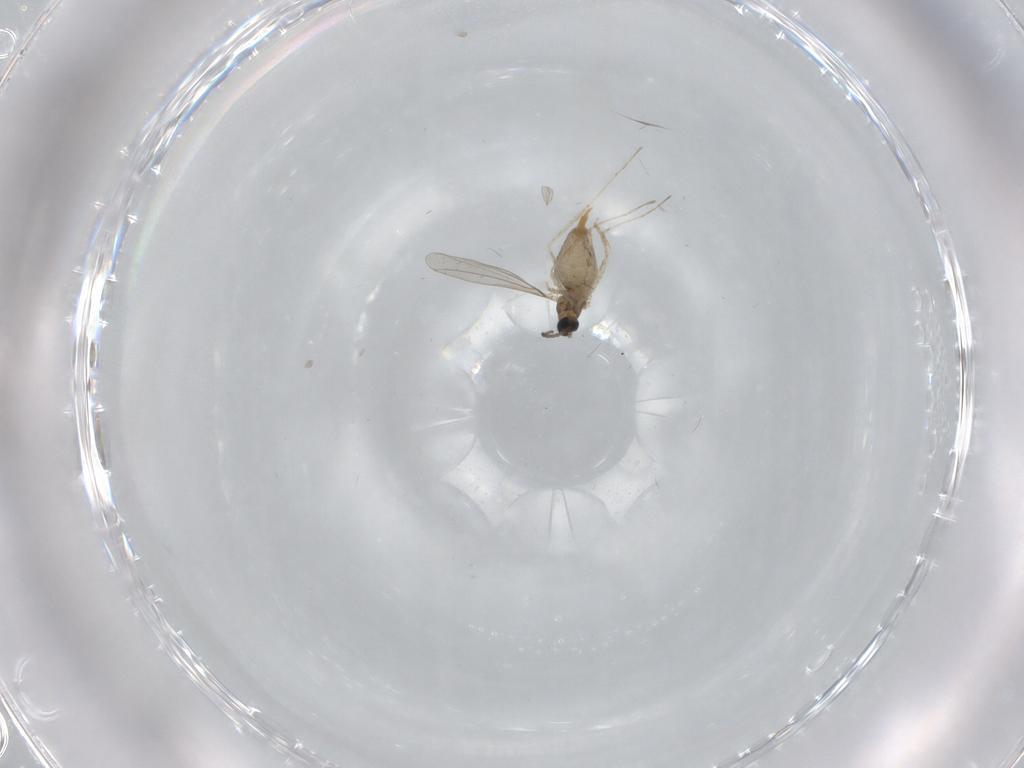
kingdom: Animalia
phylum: Arthropoda
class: Insecta
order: Diptera
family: Cecidomyiidae
